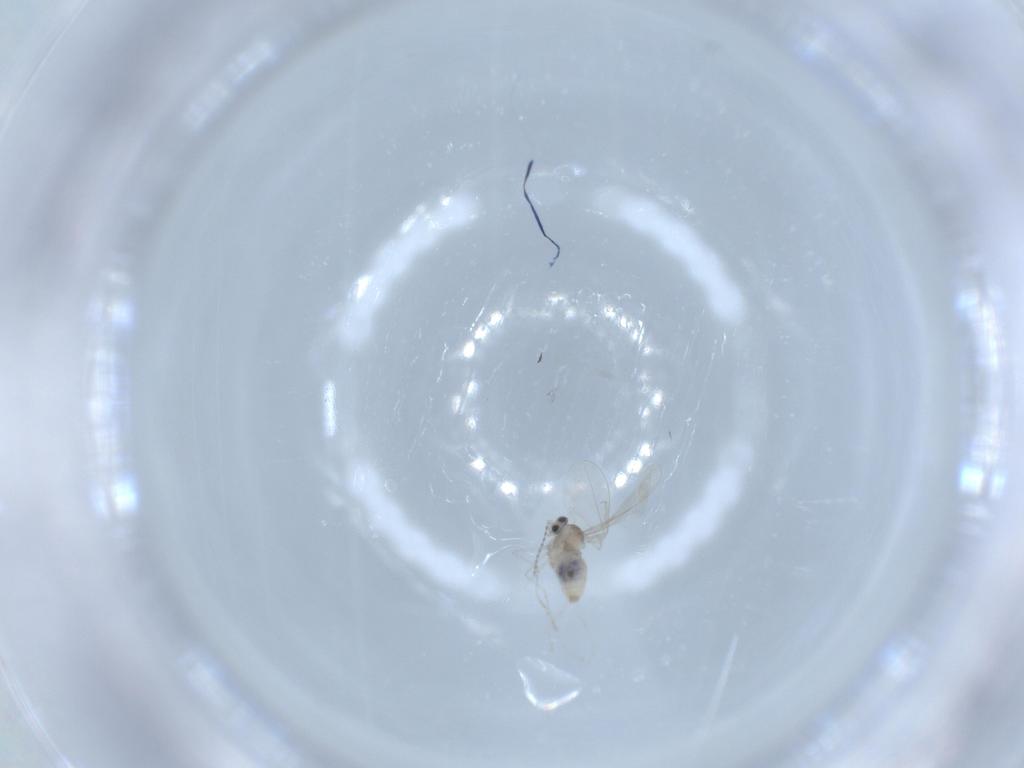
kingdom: Animalia
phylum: Arthropoda
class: Insecta
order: Diptera
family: Cecidomyiidae
